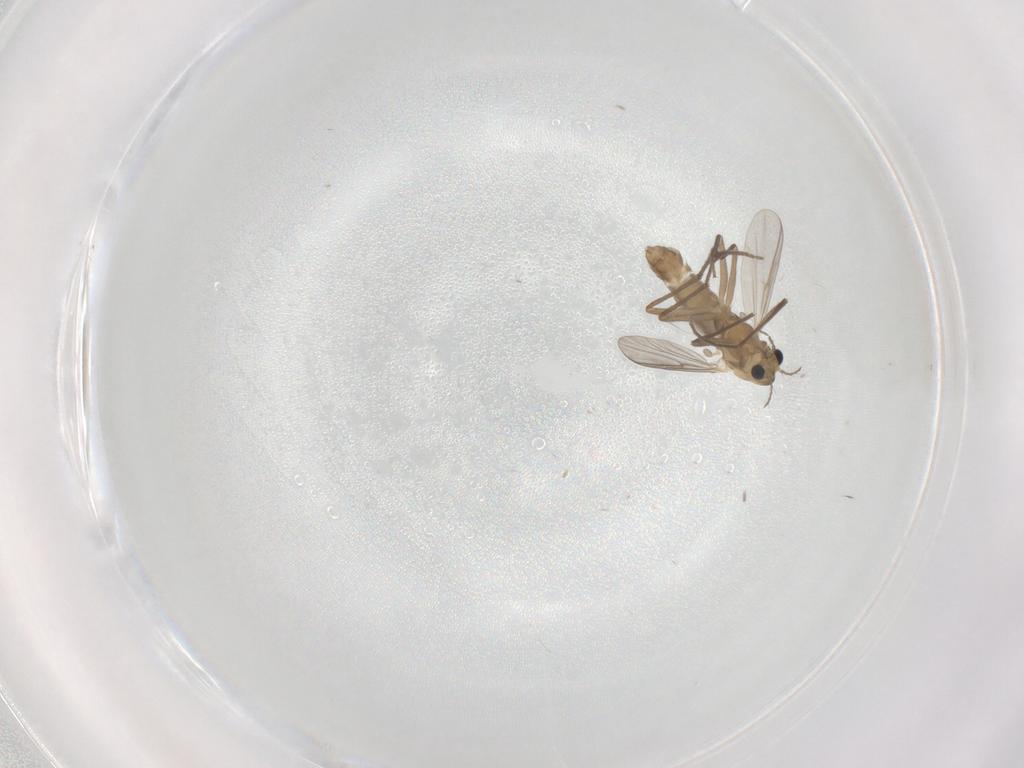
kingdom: Animalia
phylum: Arthropoda
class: Insecta
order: Diptera
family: Chironomidae
